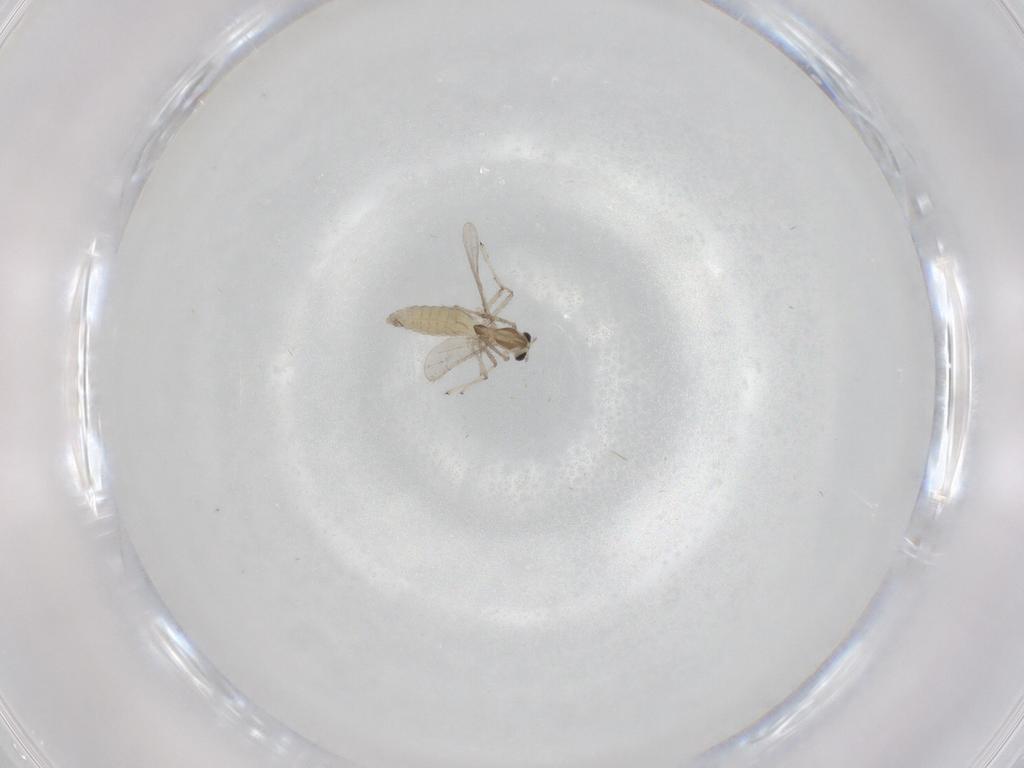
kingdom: Animalia
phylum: Arthropoda
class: Insecta
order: Diptera
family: Chironomidae
